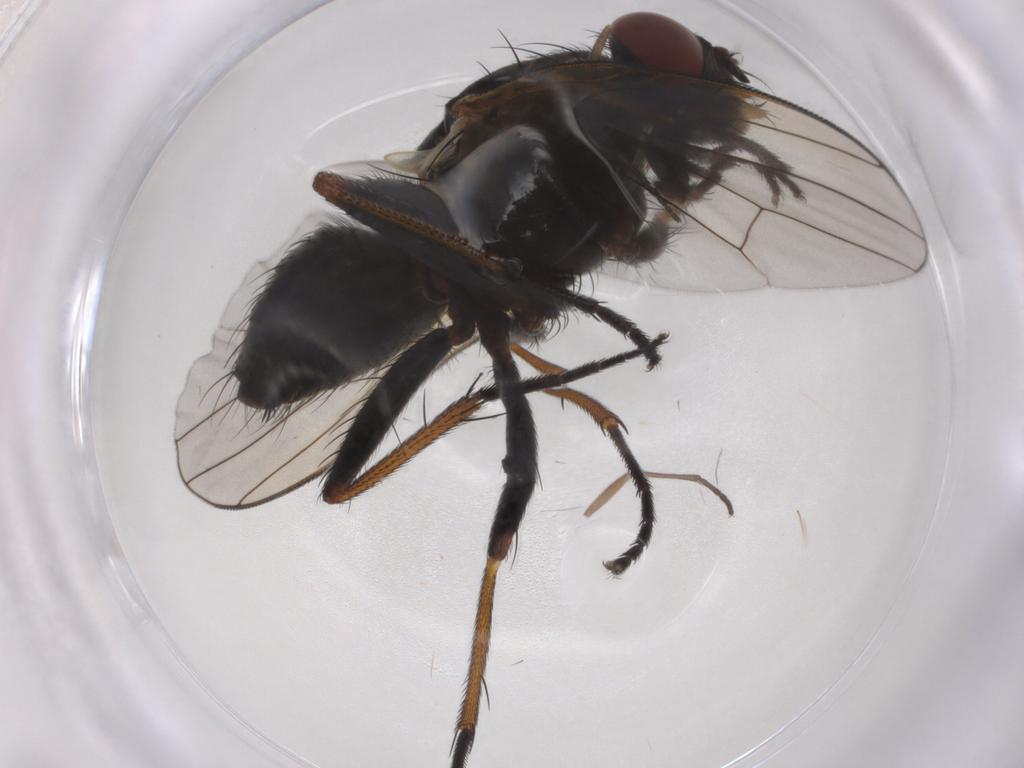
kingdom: Animalia
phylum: Arthropoda
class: Insecta
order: Diptera
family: Muscidae
